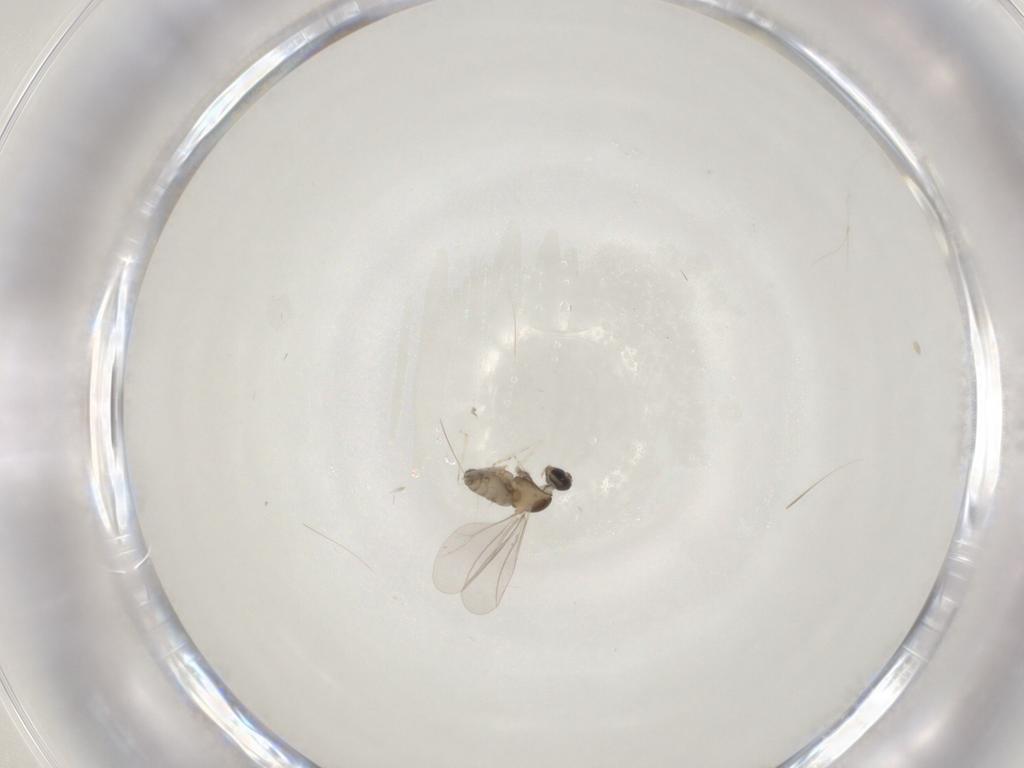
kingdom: Animalia
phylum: Arthropoda
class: Insecta
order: Diptera
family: Cecidomyiidae
